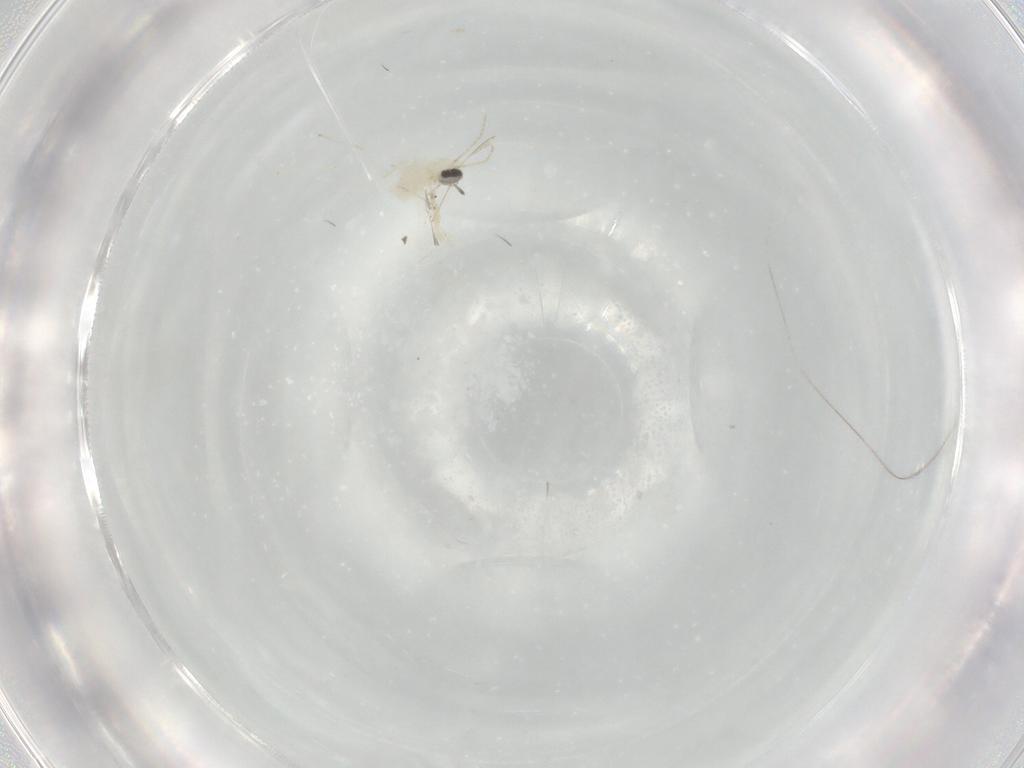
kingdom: Animalia
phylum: Arthropoda
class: Insecta
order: Diptera
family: Cecidomyiidae
